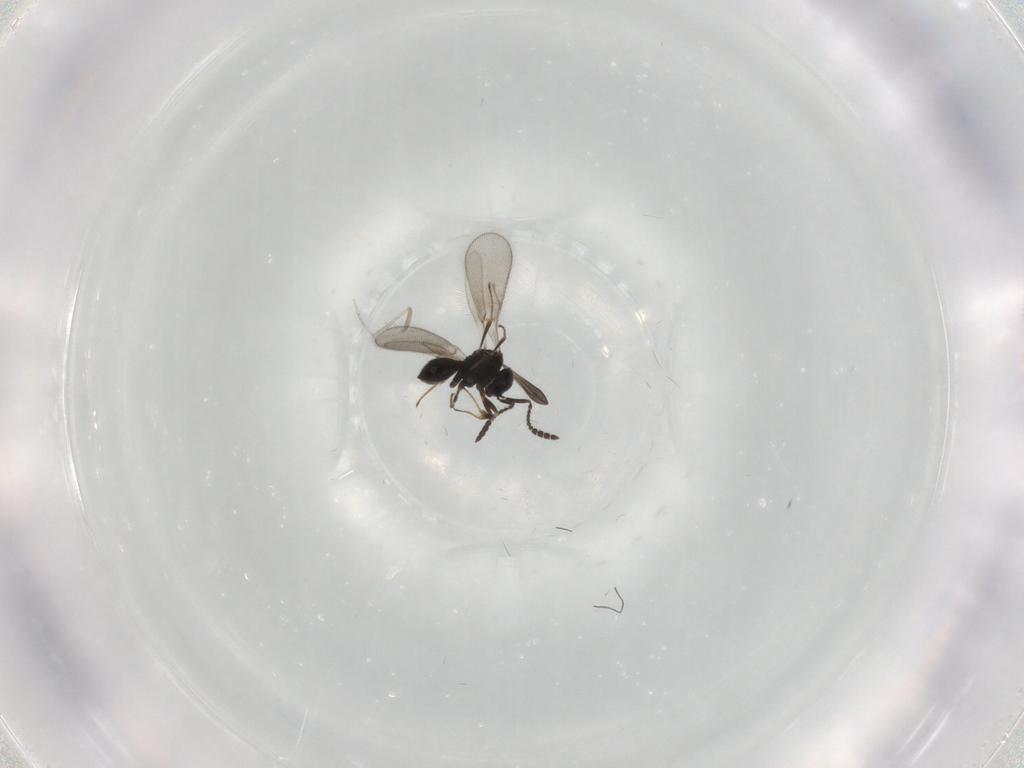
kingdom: Animalia
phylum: Arthropoda
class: Insecta
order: Hymenoptera
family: Scelionidae
